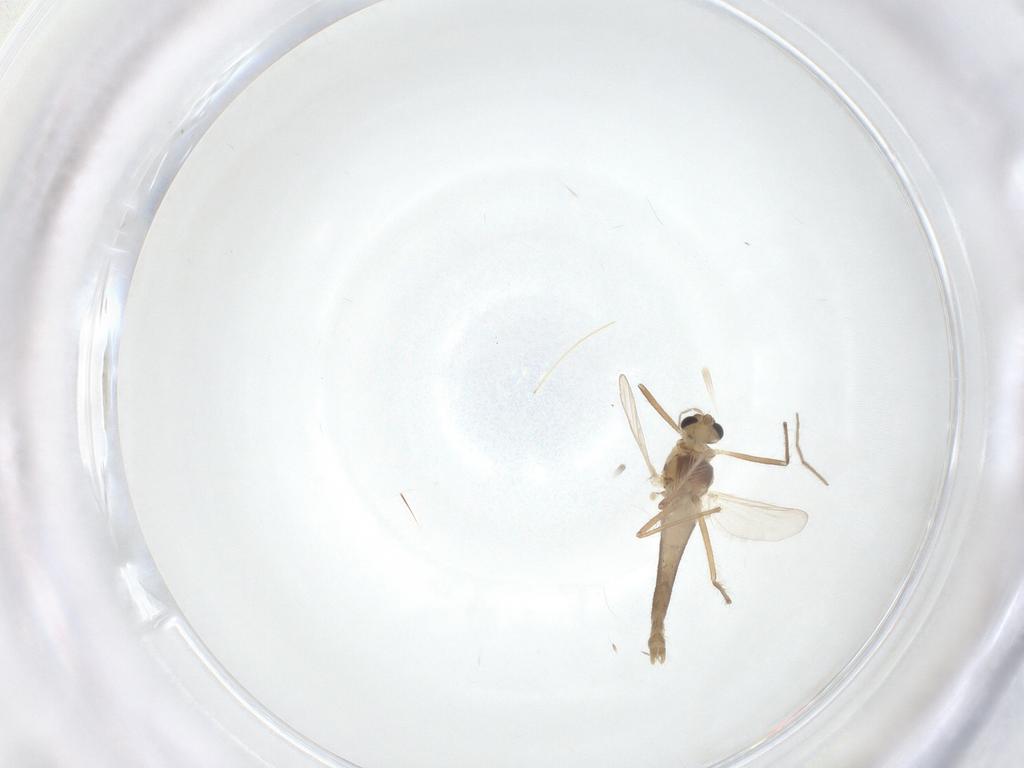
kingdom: Animalia
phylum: Arthropoda
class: Insecta
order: Diptera
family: Chironomidae
